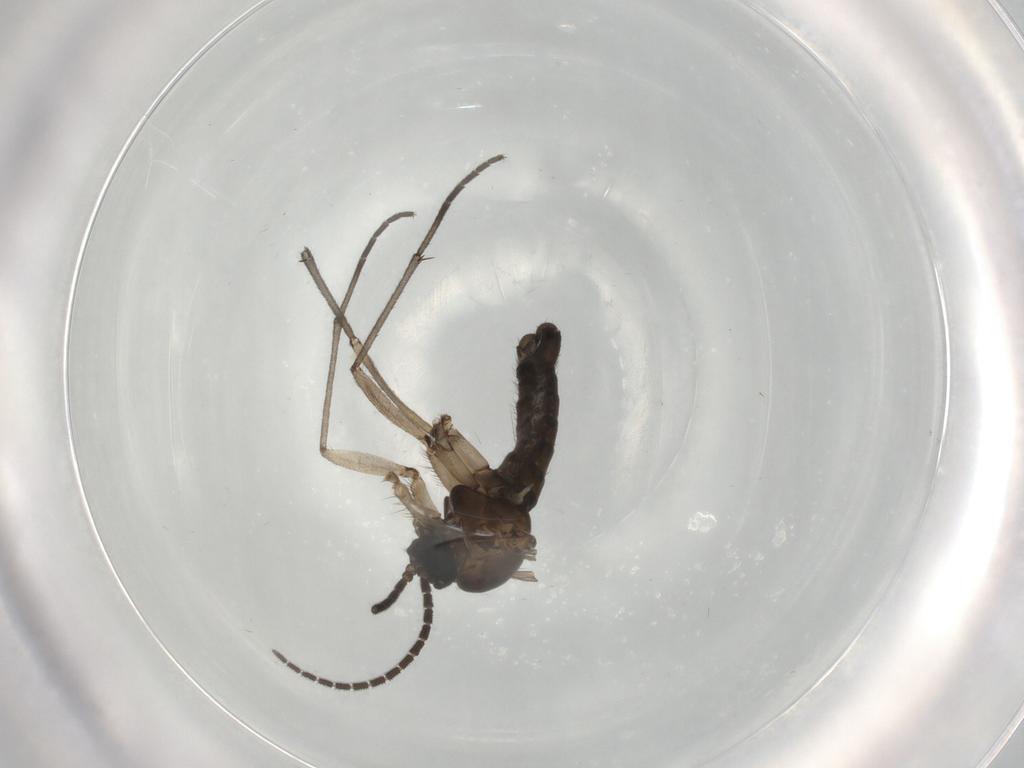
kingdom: Animalia
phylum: Arthropoda
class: Insecta
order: Diptera
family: Sciaridae
